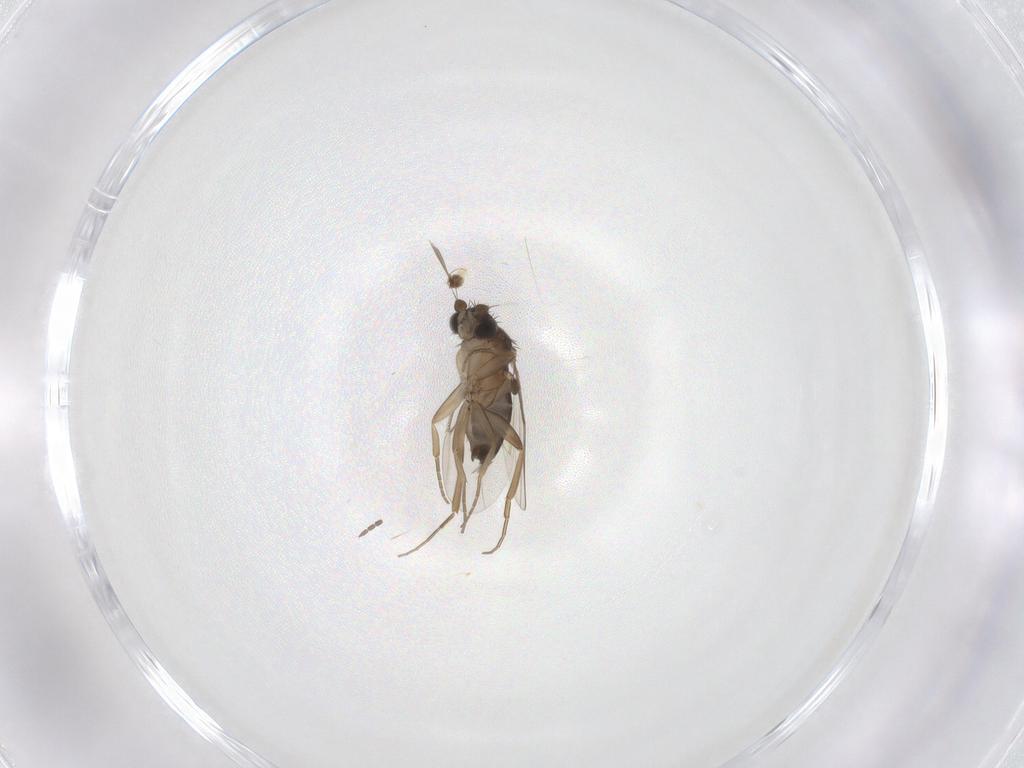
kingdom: Animalia
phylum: Arthropoda
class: Insecta
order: Diptera
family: Phoridae
